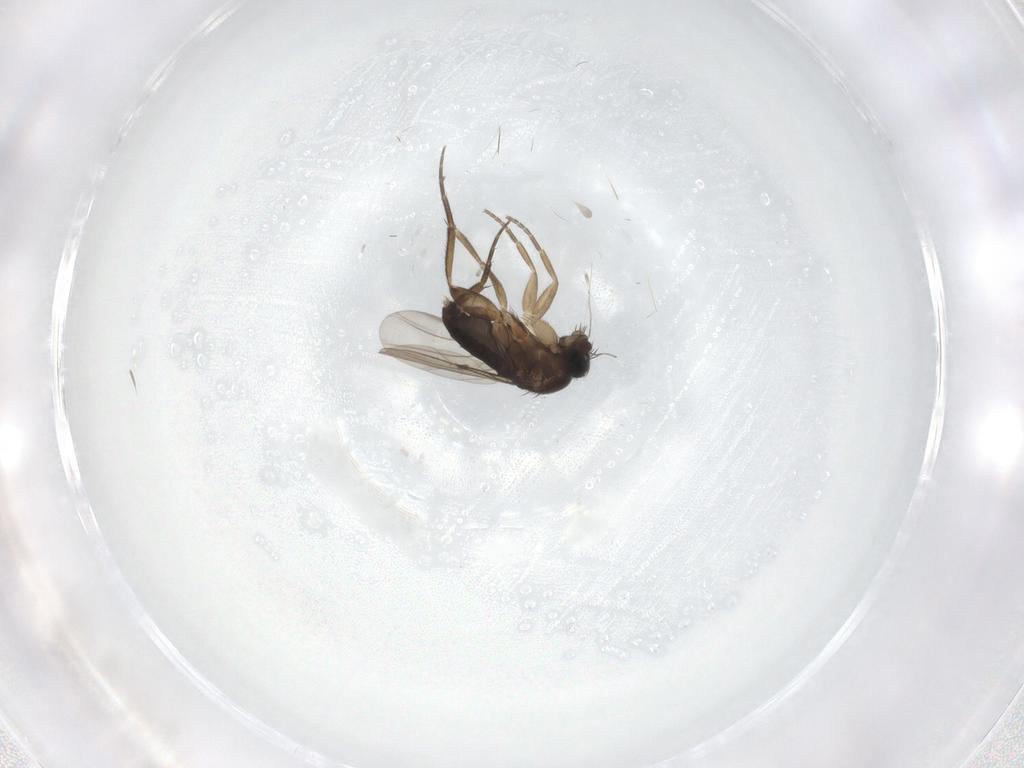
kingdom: Animalia
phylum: Arthropoda
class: Insecta
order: Diptera
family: Phoridae
